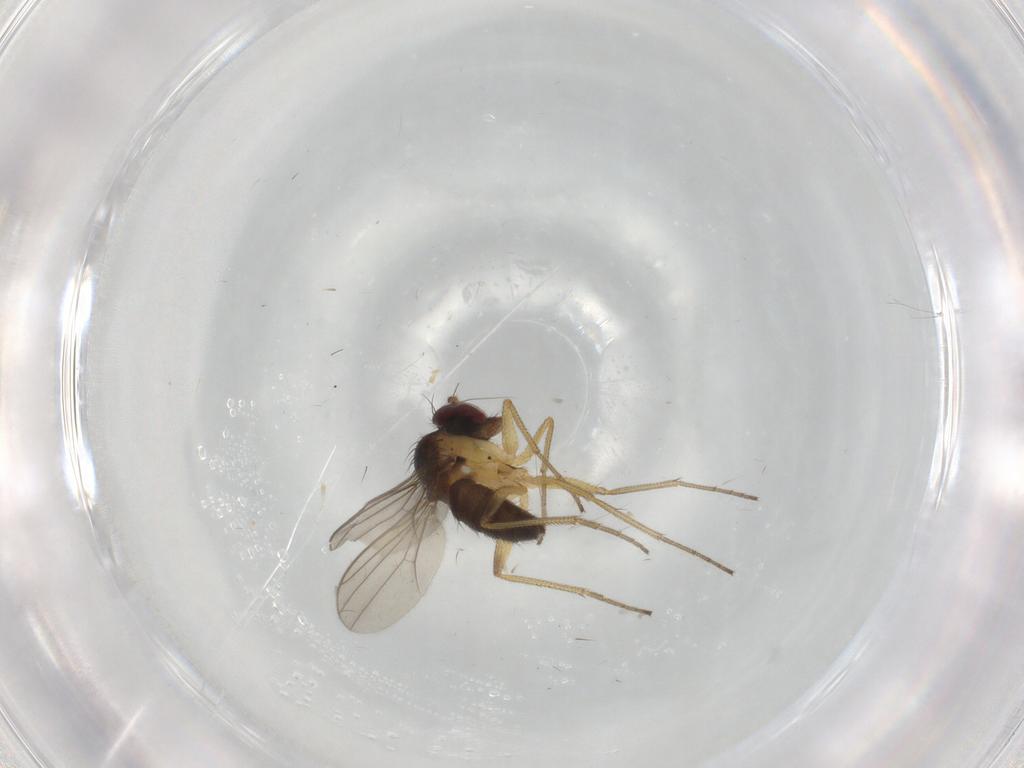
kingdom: Animalia
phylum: Arthropoda
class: Insecta
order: Diptera
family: Dolichopodidae
